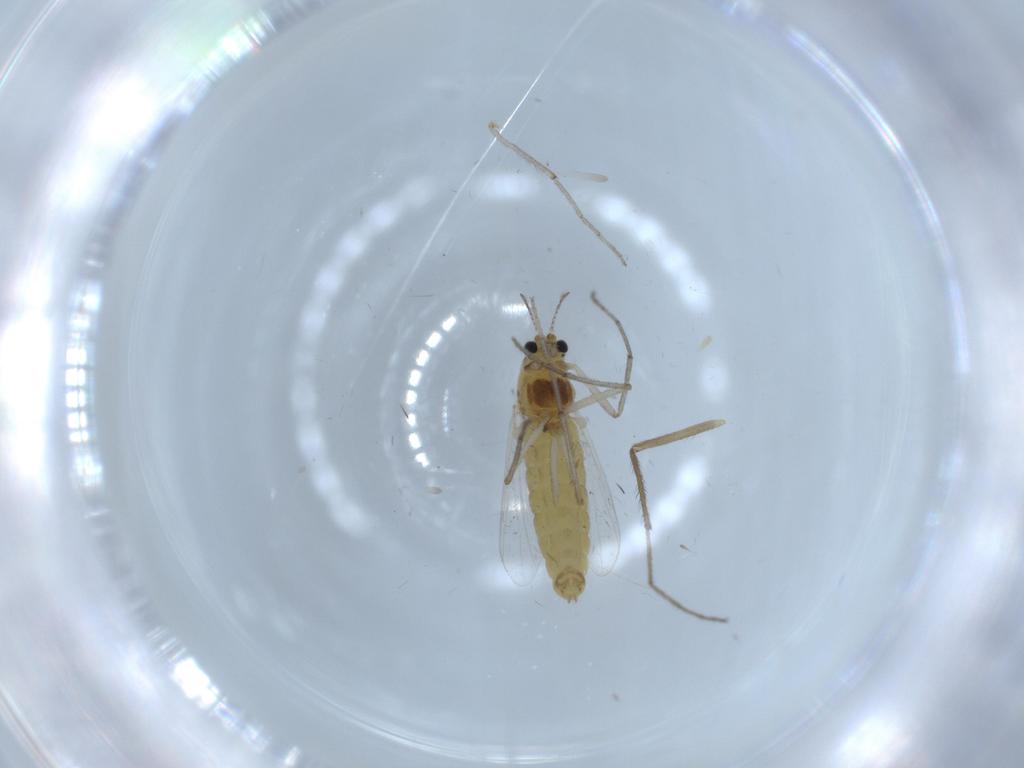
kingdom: Animalia
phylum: Arthropoda
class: Insecta
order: Diptera
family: Chironomidae
